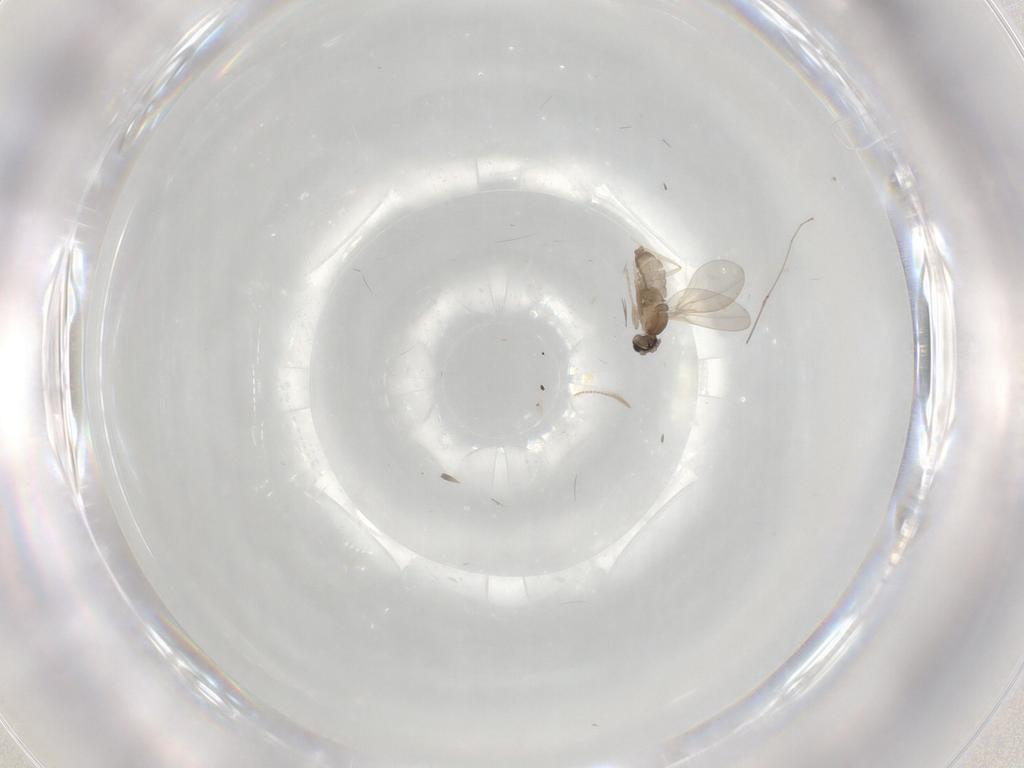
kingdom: Animalia
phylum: Arthropoda
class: Insecta
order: Diptera
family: Cecidomyiidae
